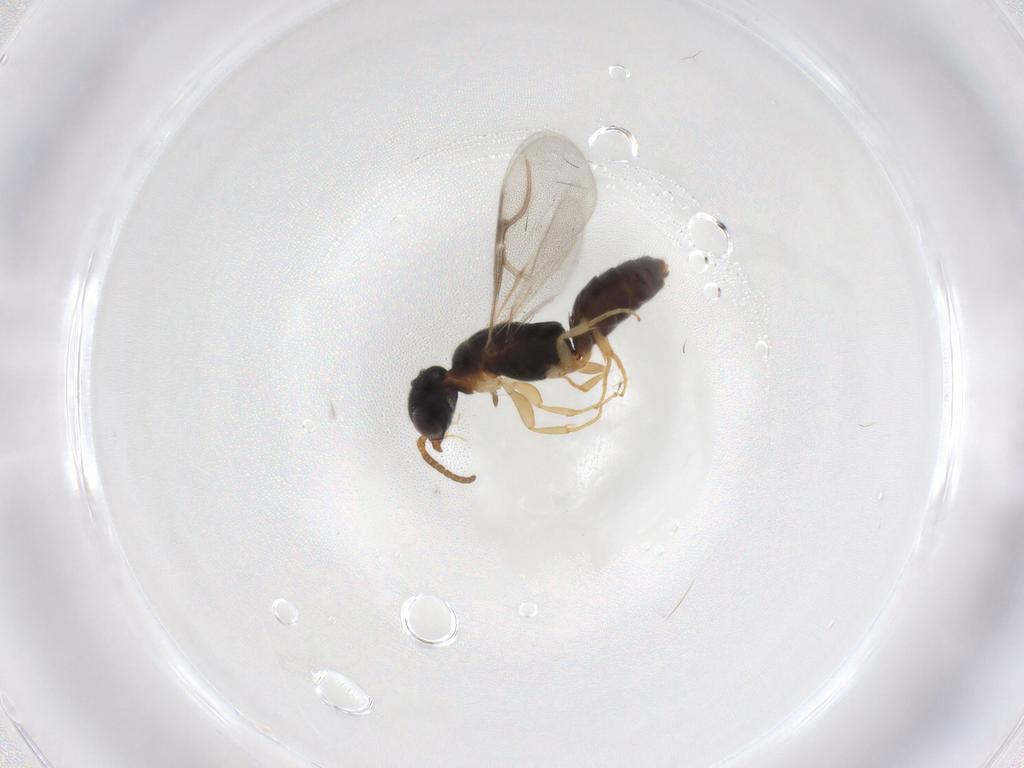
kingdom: Animalia
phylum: Arthropoda
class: Insecta
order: Hymenoptera
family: Bethylidae
